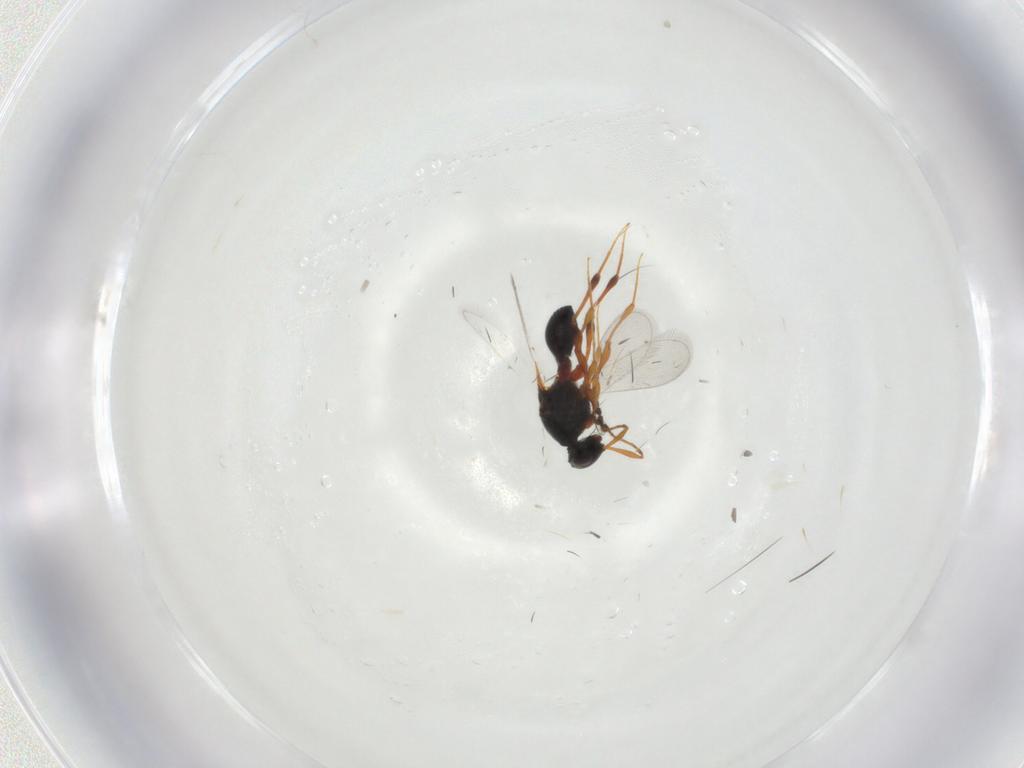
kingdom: Animalia
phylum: Arthropoda
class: Insecta
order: Hymenoptera
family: Platygastridae
